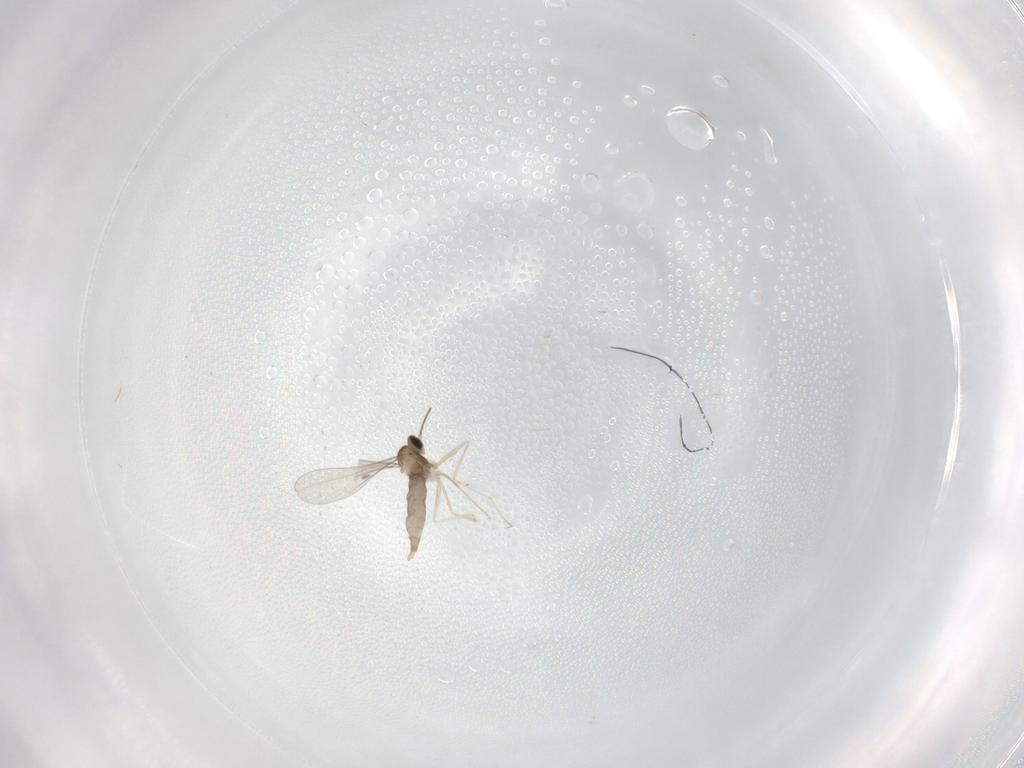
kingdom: Animalia
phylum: Arthropoda
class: Insecta
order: Diptera
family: Cecidomyiidae
